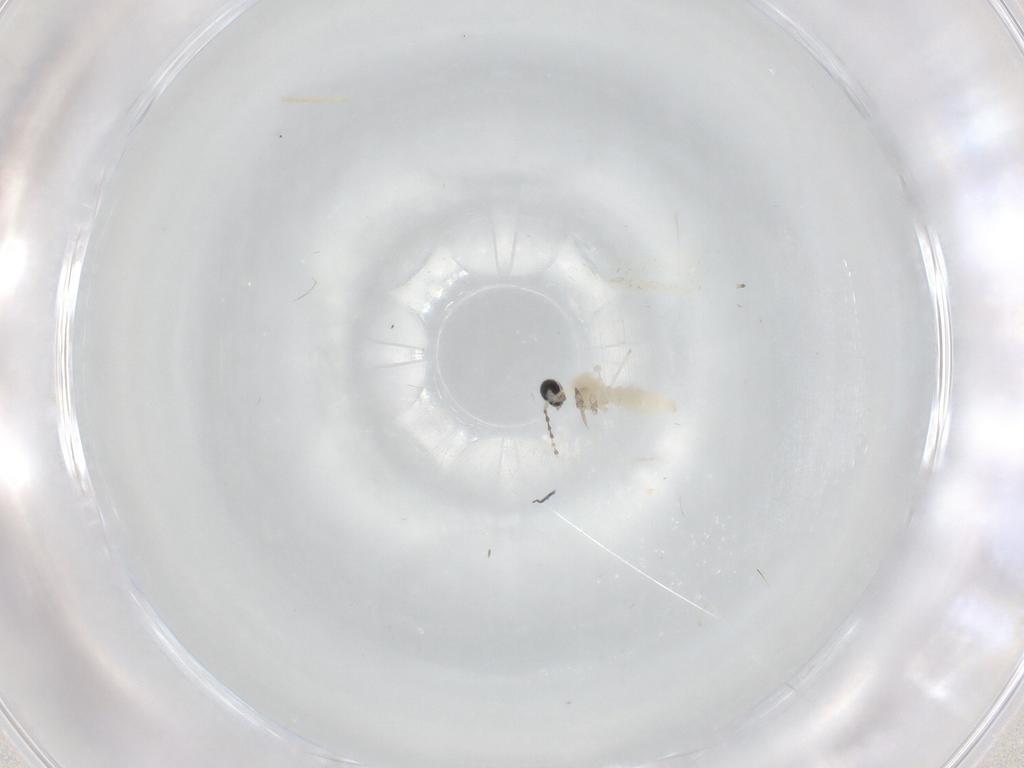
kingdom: Animalia
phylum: Arthropoda
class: Insecta
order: Diptera
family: Cecidomyiidae
